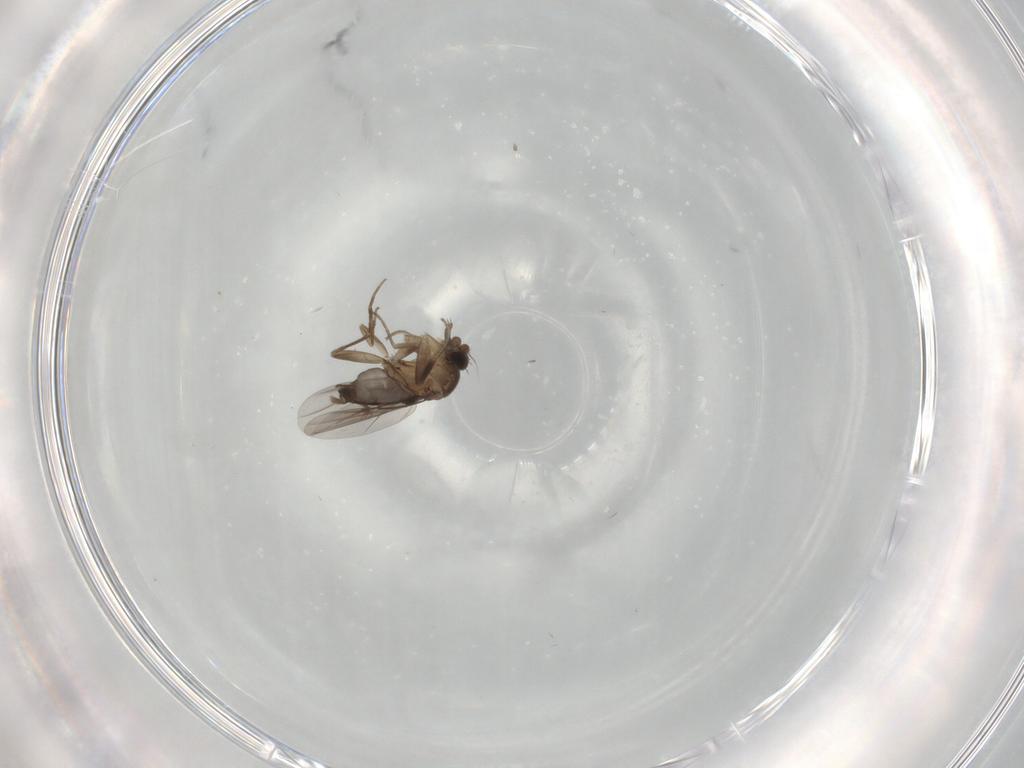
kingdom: Animalia
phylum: Arthropoda
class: Insecta
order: Diptera
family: Phoridae
